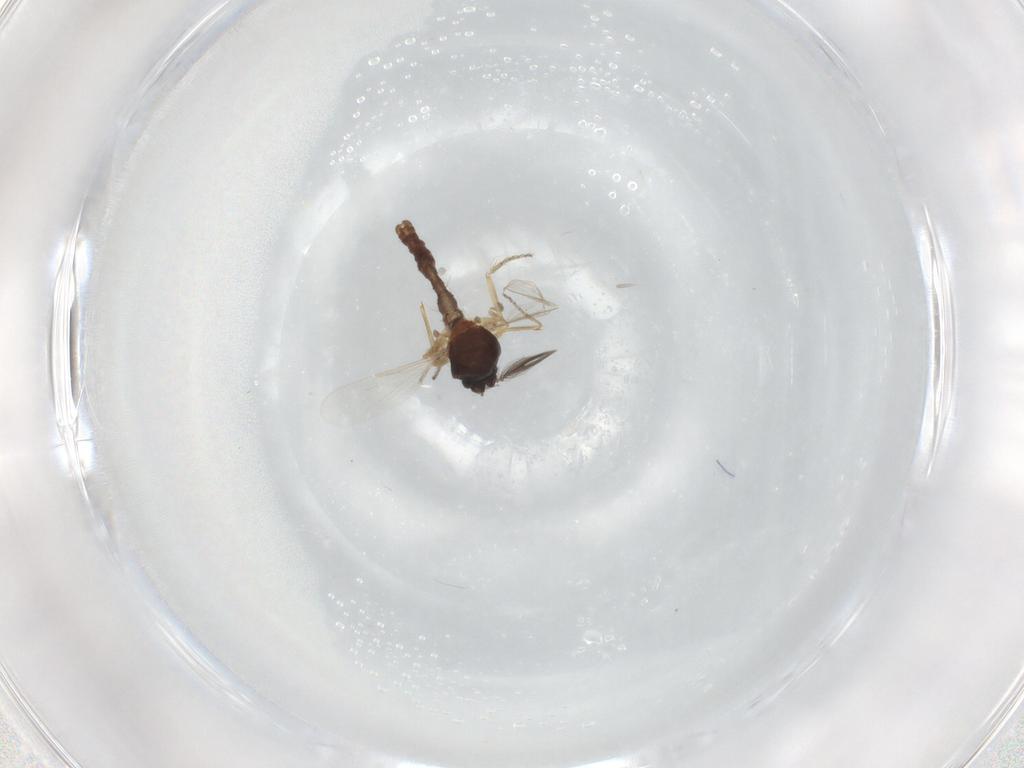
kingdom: Animalia
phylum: Arthropoda
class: Insecta
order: Diptera
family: Ceratopogonidae
